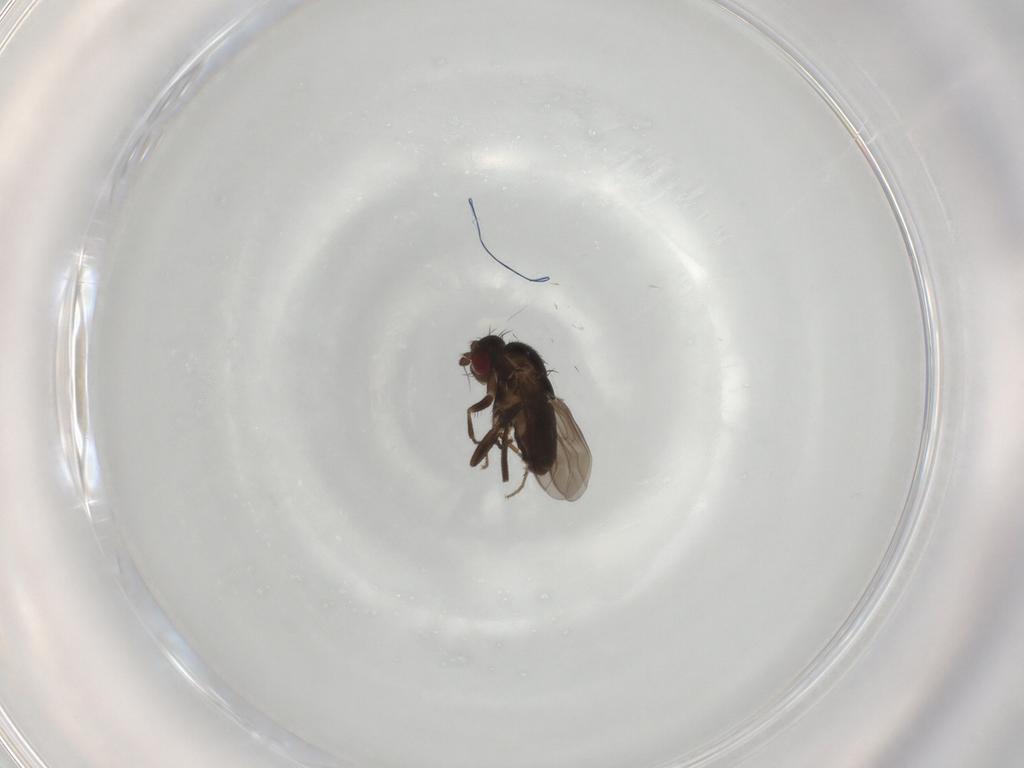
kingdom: Animalia
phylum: Arthropoda
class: Insecta
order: Diptera
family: Sphaeroceridae
